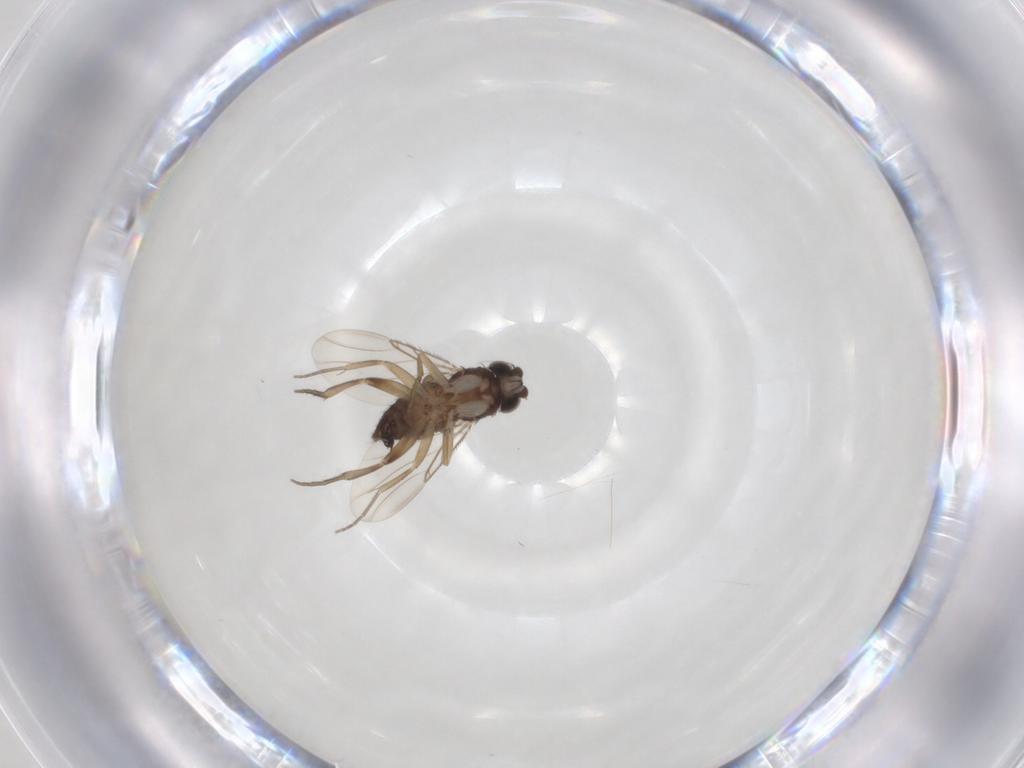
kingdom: Animalia
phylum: Arthropoda
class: Insecta
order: Diptera
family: Phoridae
